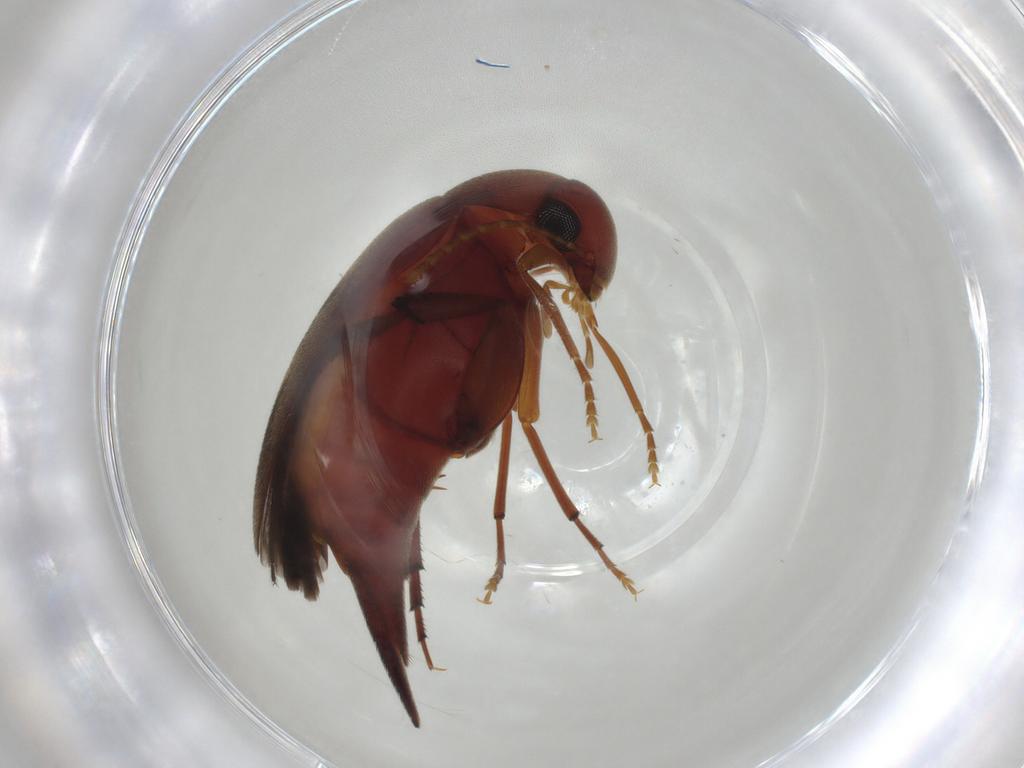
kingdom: Animalia
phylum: Arthropoda
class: Insecta
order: Coleoptera
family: Mordellidae
